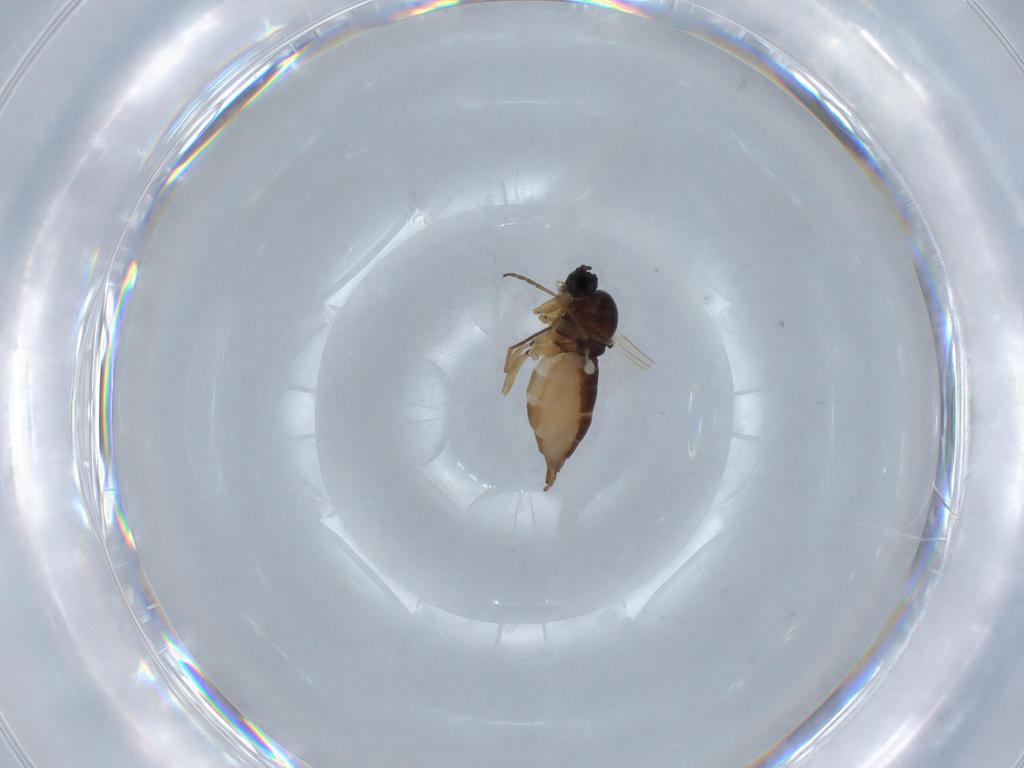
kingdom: Animalia
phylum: Arthropoda
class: Insecta
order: Diptera
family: Sciaridae
